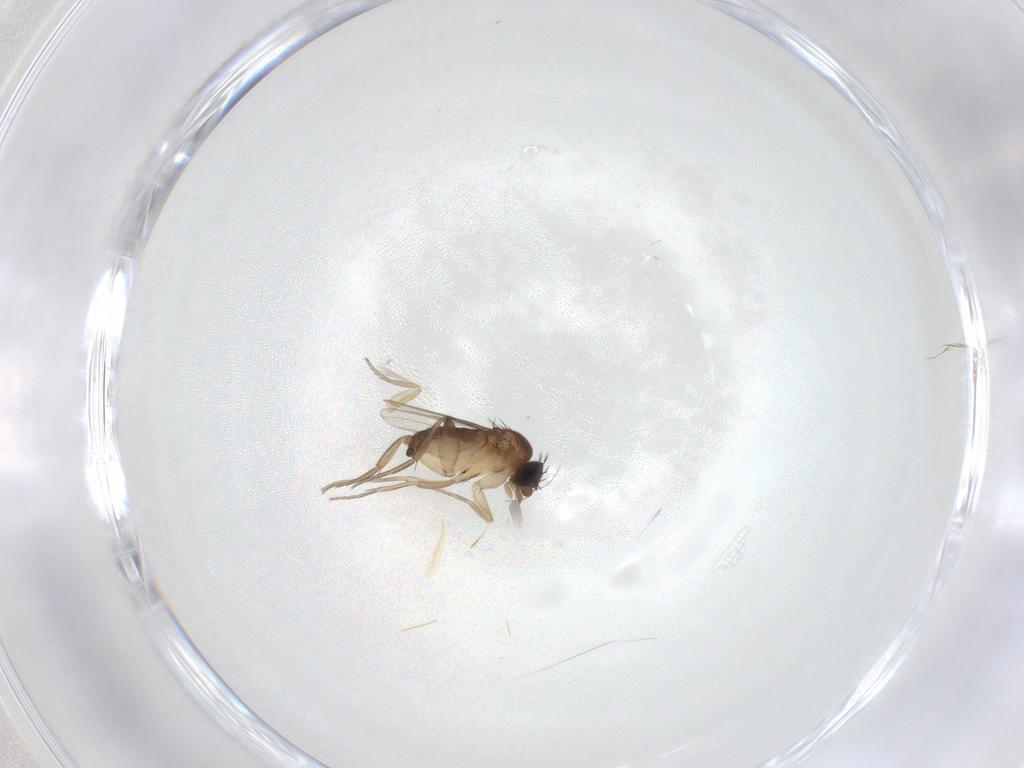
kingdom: Animalia
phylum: Arthropoda
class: Insecta
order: Diptera
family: Phoridae
